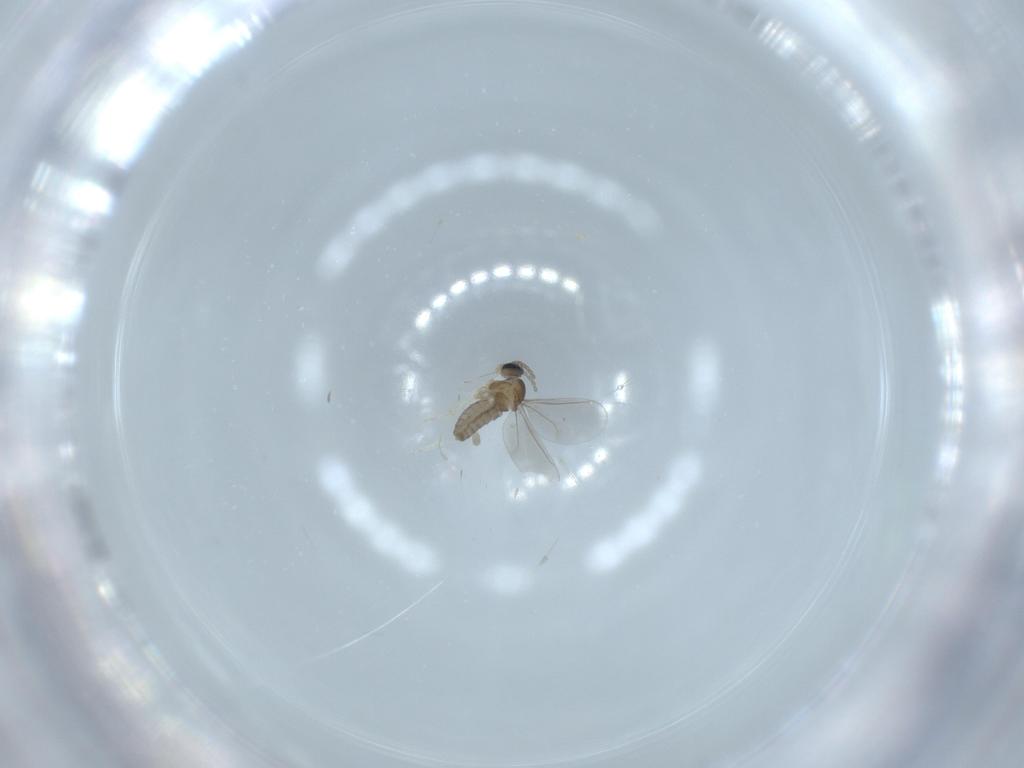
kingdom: Animalia
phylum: Arthropoda
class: Insecta
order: Diptera
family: Cecidomyiidae
